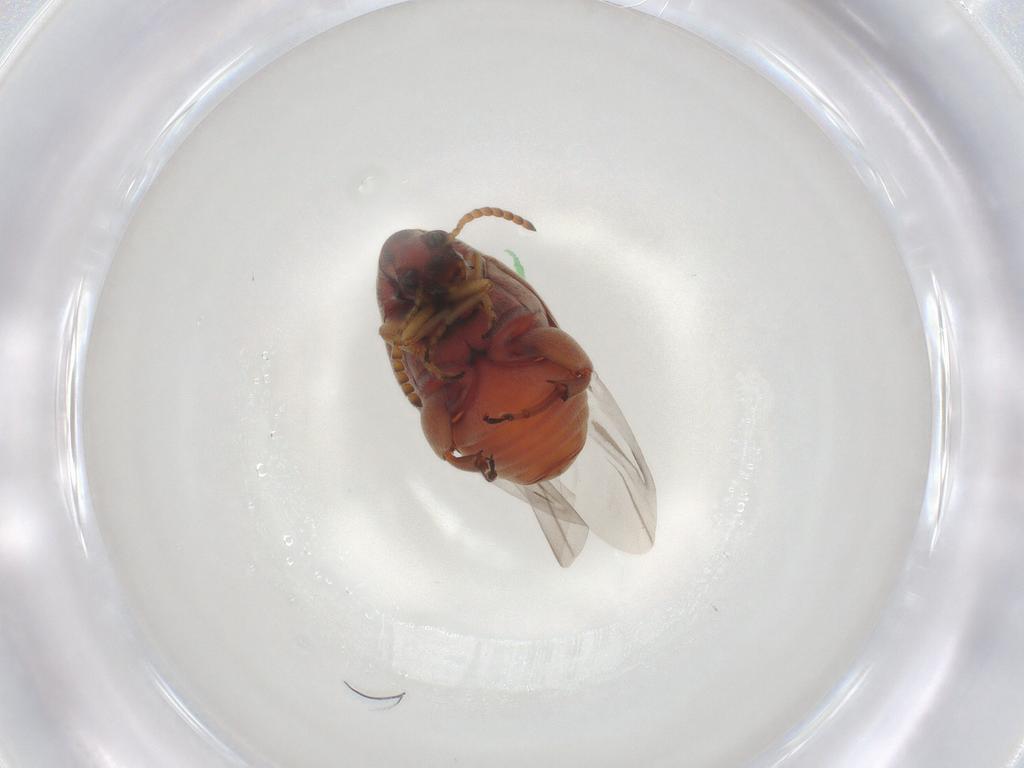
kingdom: Animalia
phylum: Arthropoda
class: Insecta
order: Coleoptera
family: Chrysomelidae
